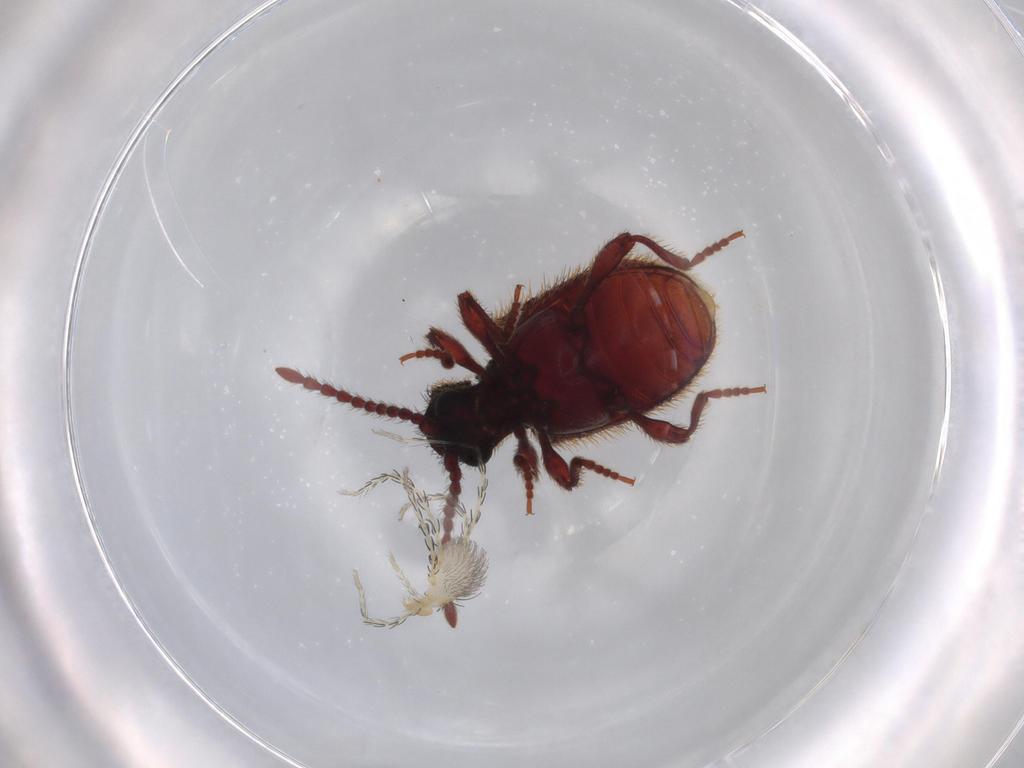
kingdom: Animalia
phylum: Arthropoda
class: Arachnida
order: Trombidiformes
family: Erythraeidae
